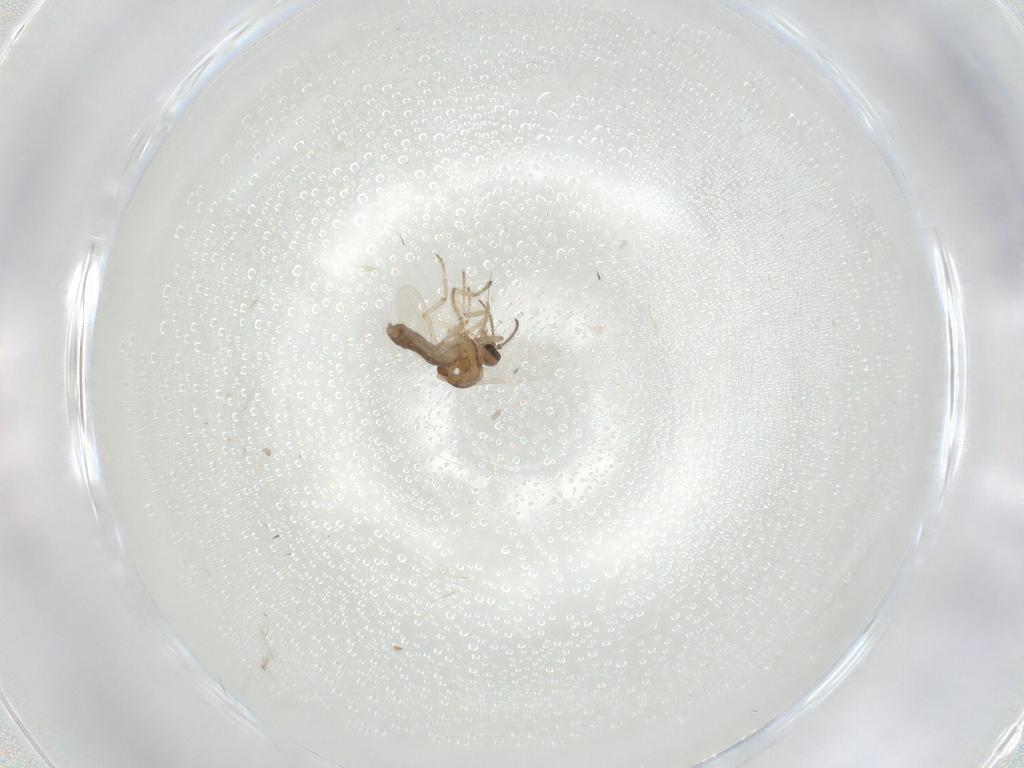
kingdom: Animalia
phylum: Arthropoda
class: Insecta
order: Diptera
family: Ceratopogonidae
